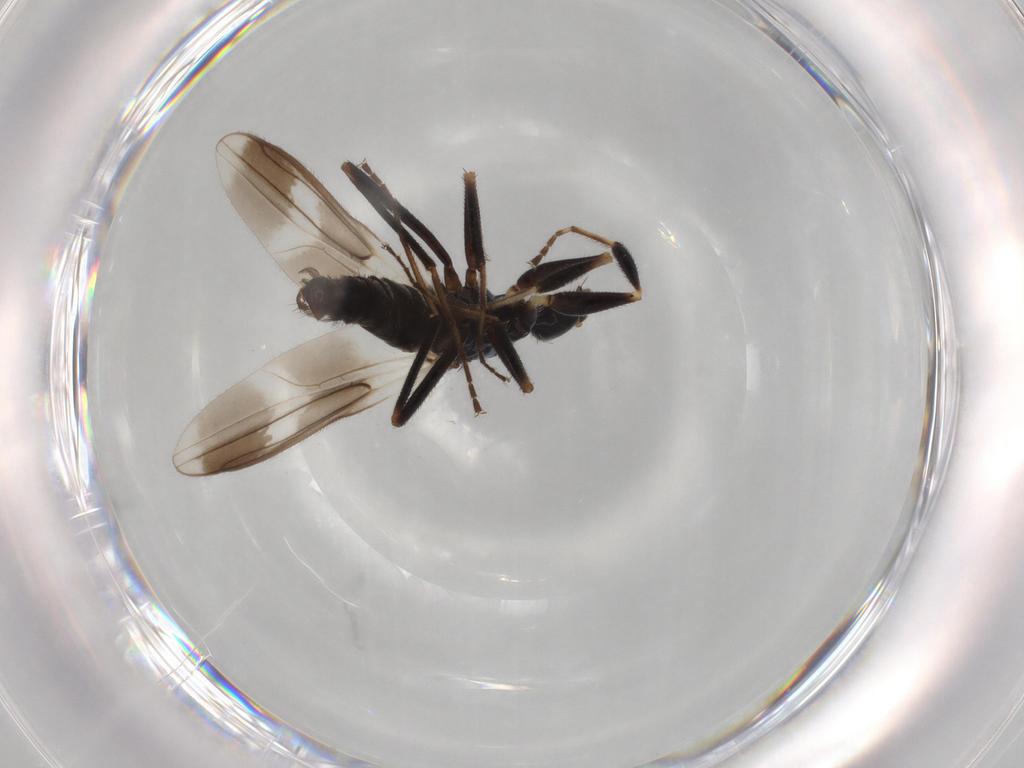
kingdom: Animalia
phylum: Arthropoda
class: Insecta
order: Diptera
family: Hybotidae
